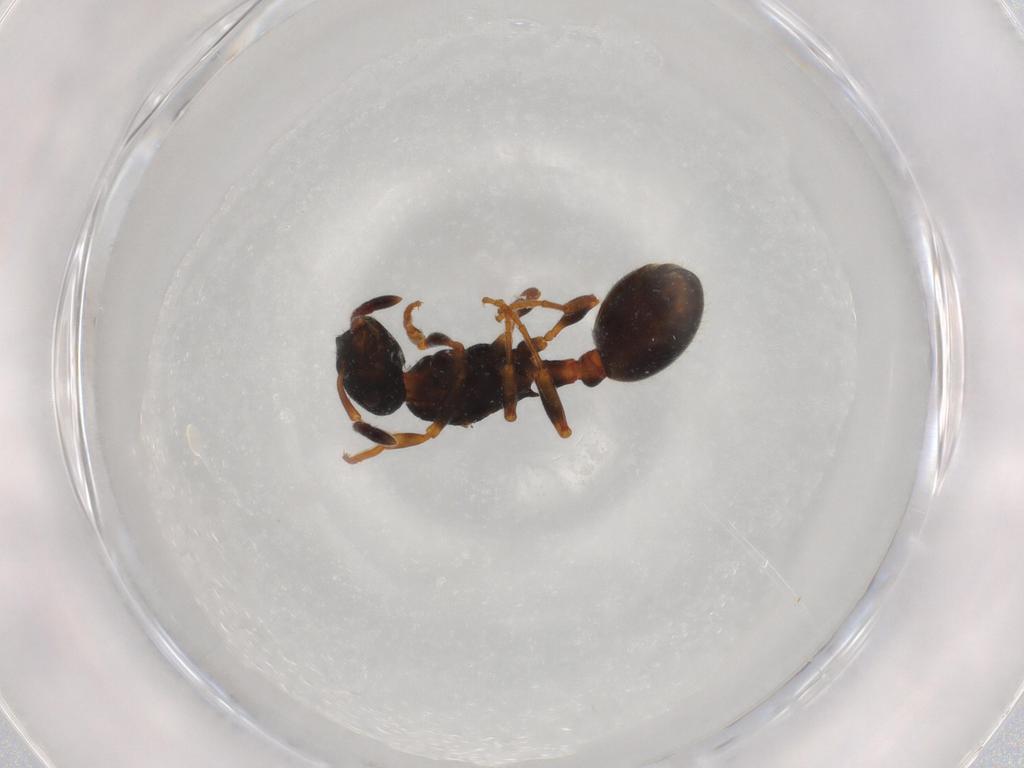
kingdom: Animalia
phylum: Arthropoda
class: Insecta
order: Hymenoptera
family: Formicidae
